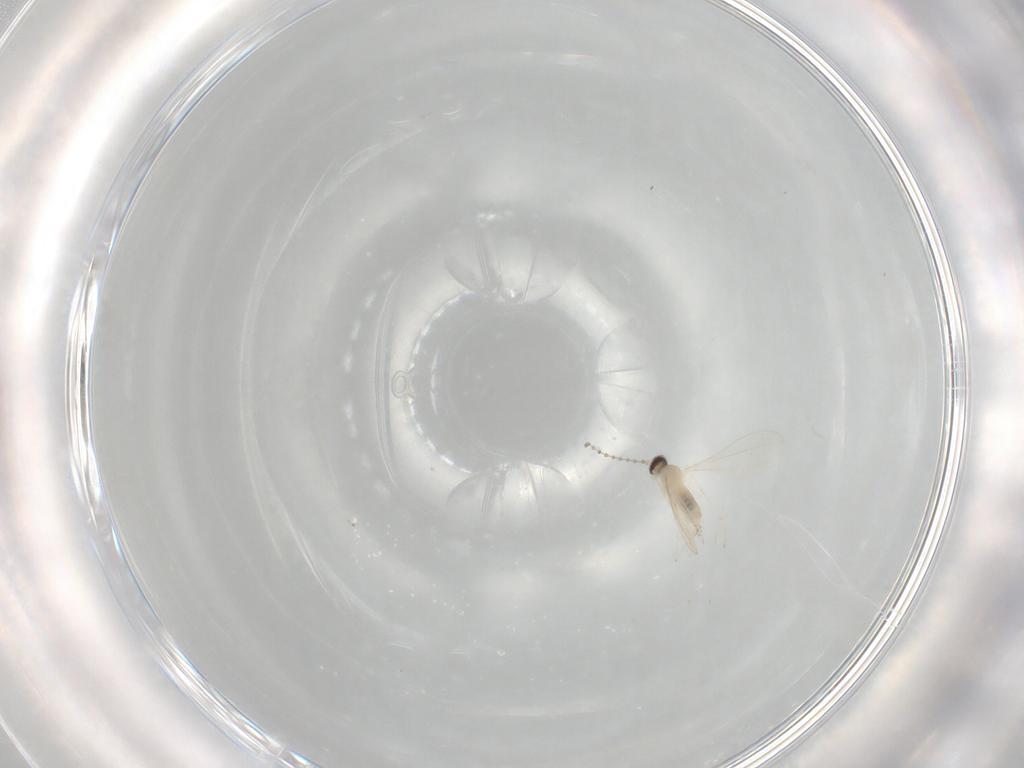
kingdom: Animalia
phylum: Arthropoda
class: Insecta
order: Diptera
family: Cecidomyiidae
